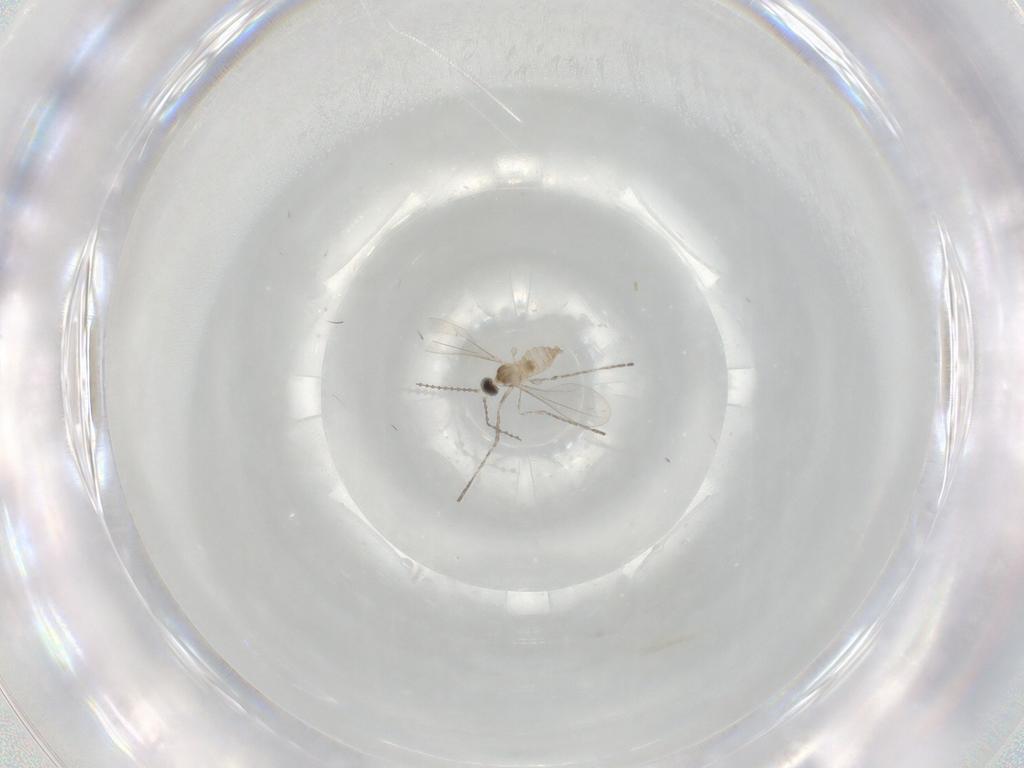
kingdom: Animalia
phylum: Arthropoda
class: Insecta
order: Diptera
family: Cecidomyiidae
